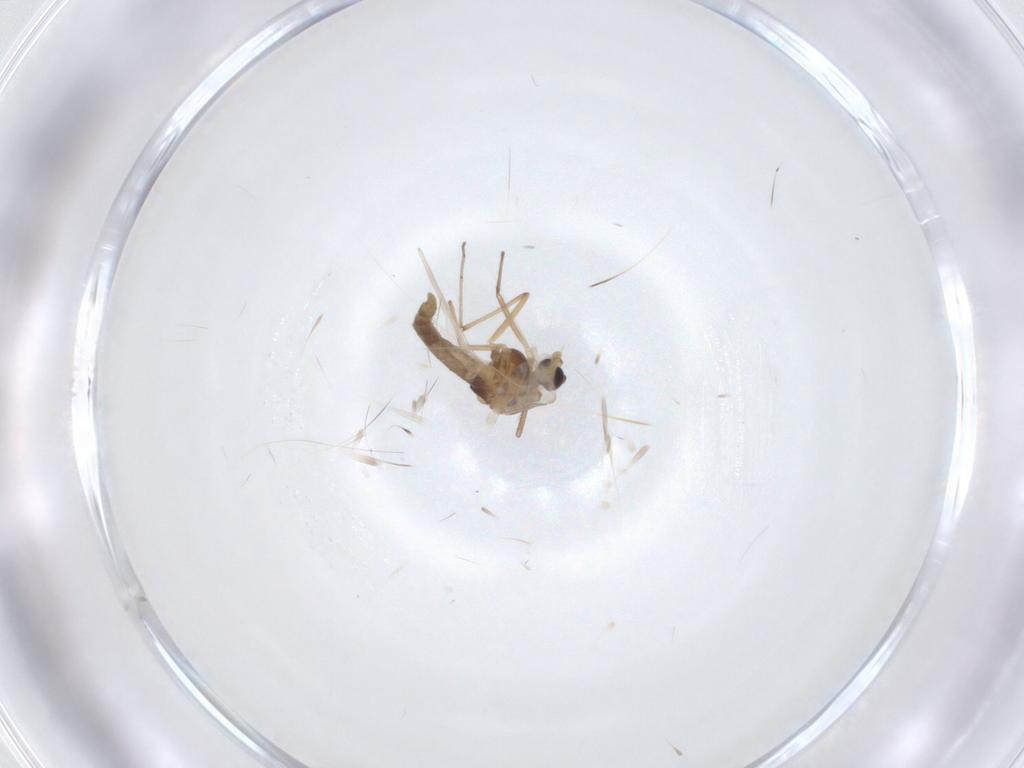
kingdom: Animalia
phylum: Arthropoda
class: Insecta
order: Diptera
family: Chironomidae
